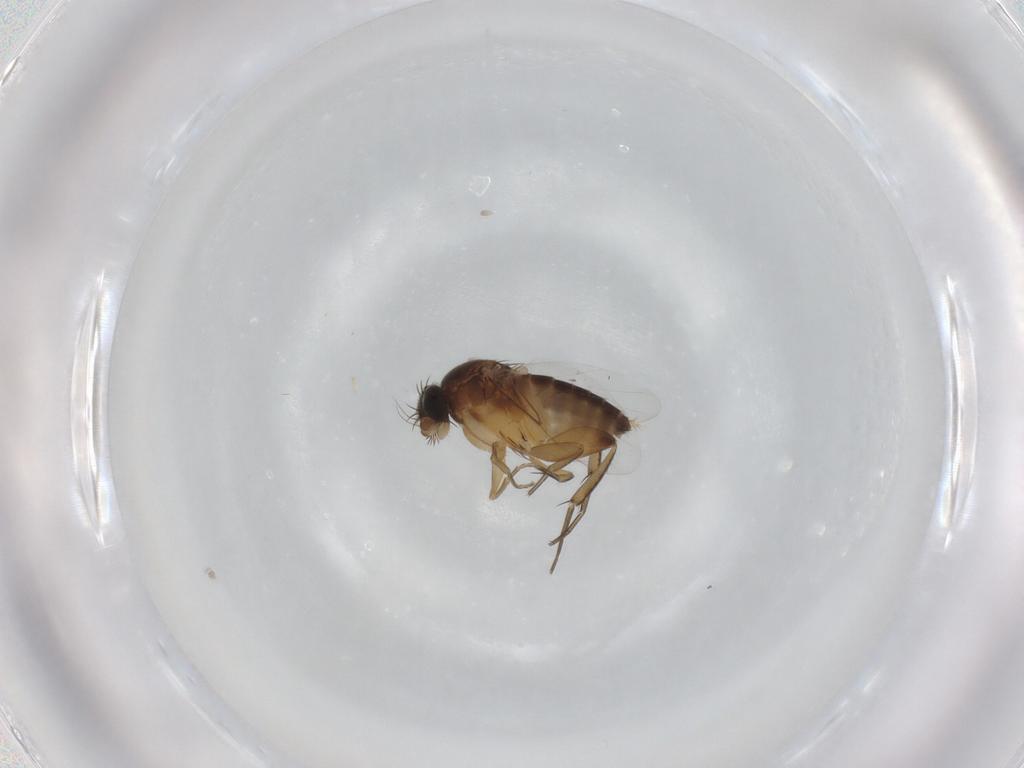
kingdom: Animalia
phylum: Arthropoda
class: Insecta
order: Diptera
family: Phoridae
